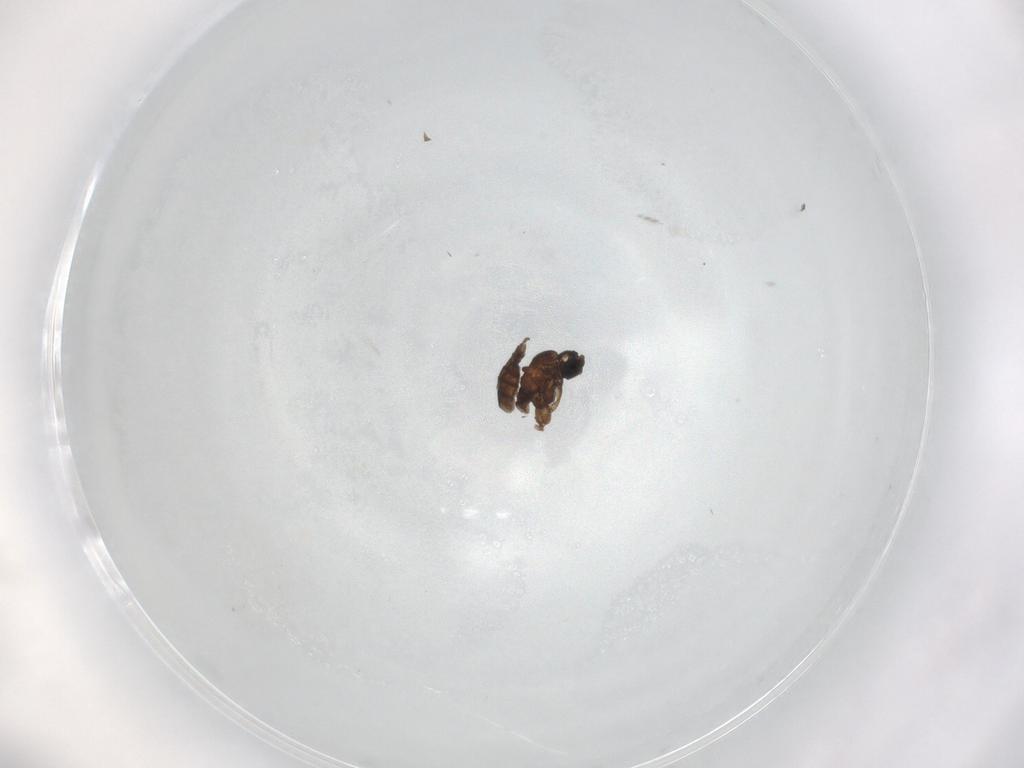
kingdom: Animalia
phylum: Arthropoda
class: Insecta
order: Diptera
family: Sciaridae
